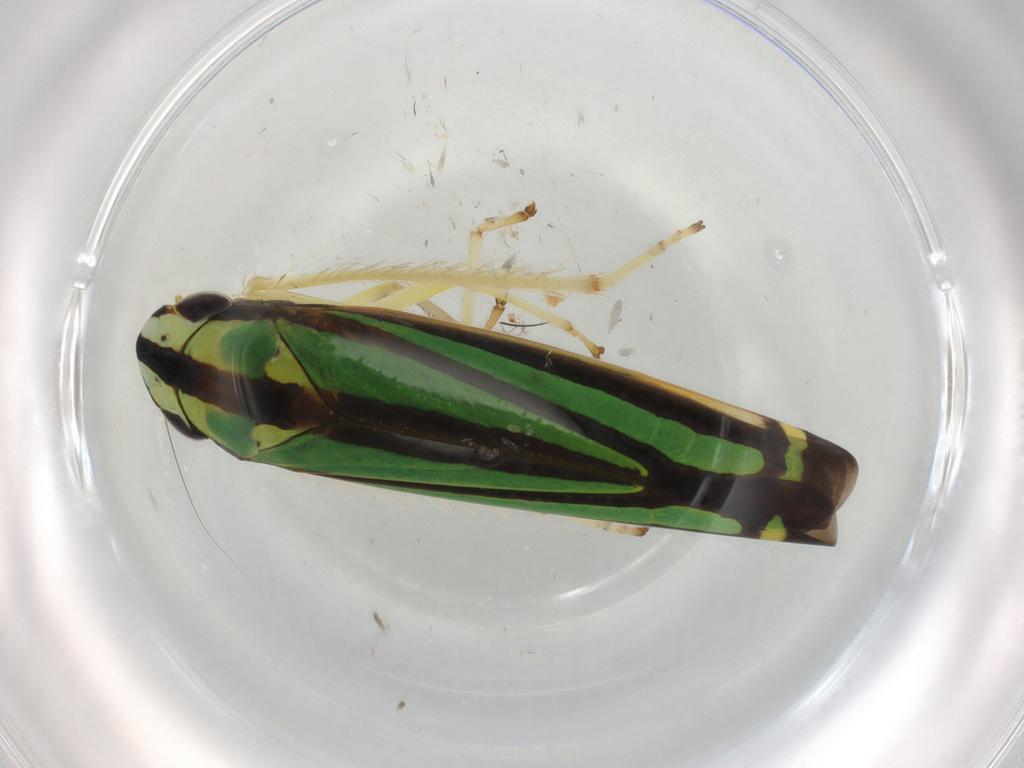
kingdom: Animalia
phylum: Arthropoda
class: Insecta
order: Hemiptera
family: Cicadellidae
